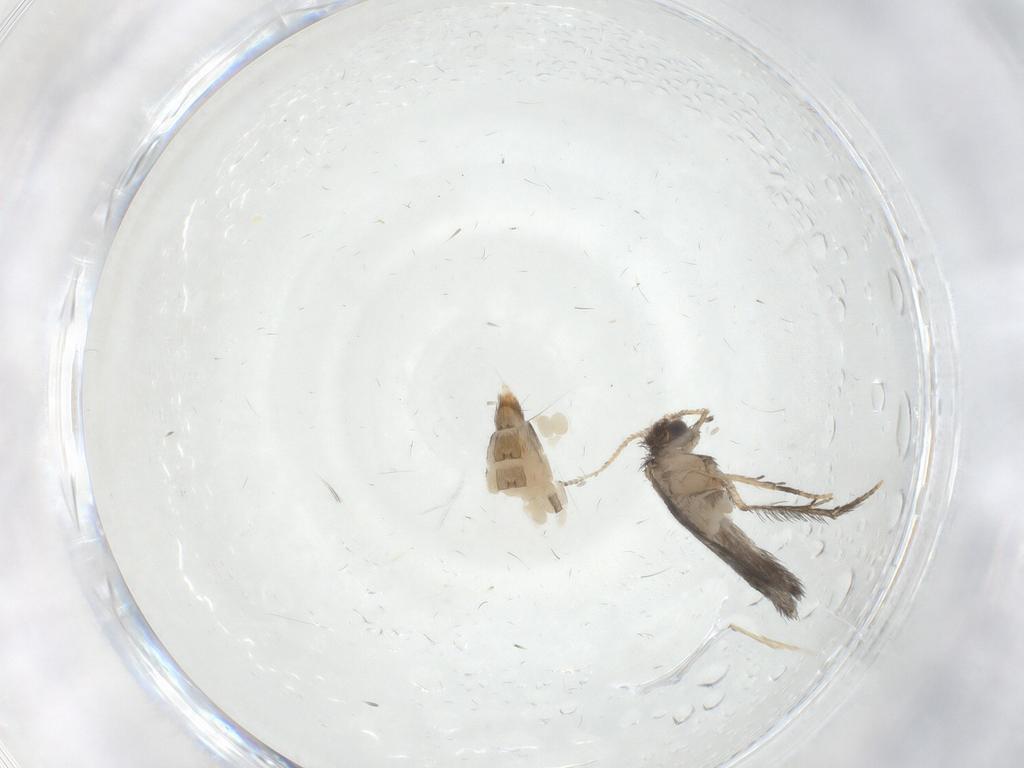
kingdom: Animalia
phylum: Arthropoda
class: Insecta
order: Trichoptera
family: Hydroptilidae
